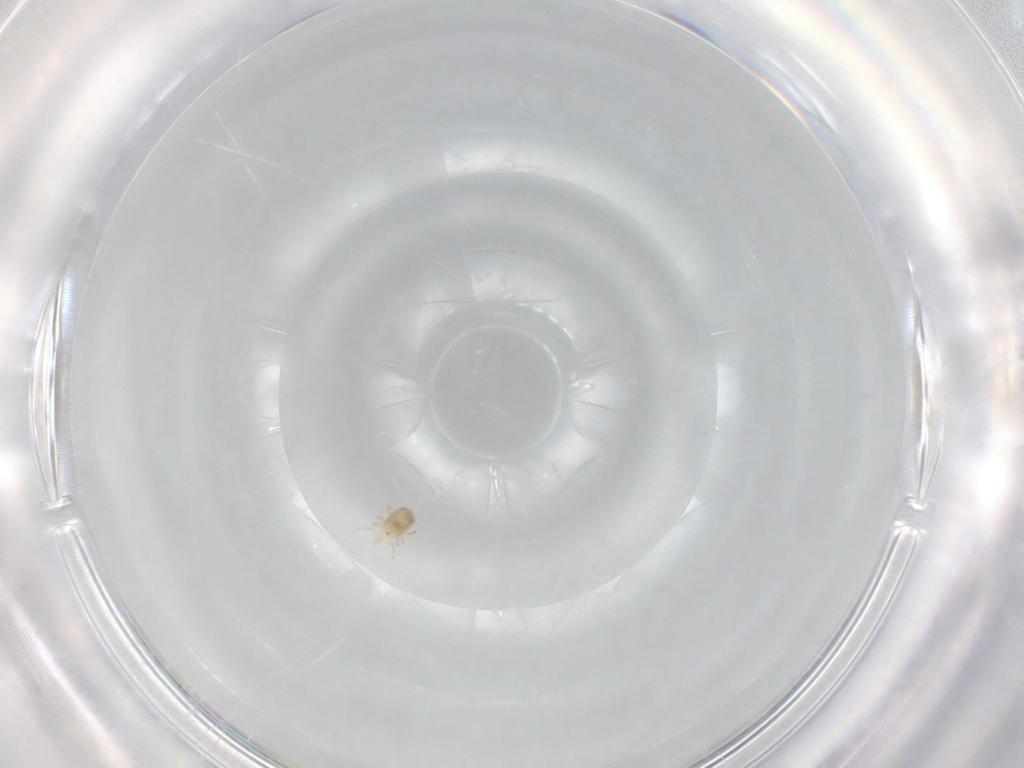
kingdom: Animalia
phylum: Arthropoda
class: Arachnida
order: Mesostigmata
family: Phytoseiidae
